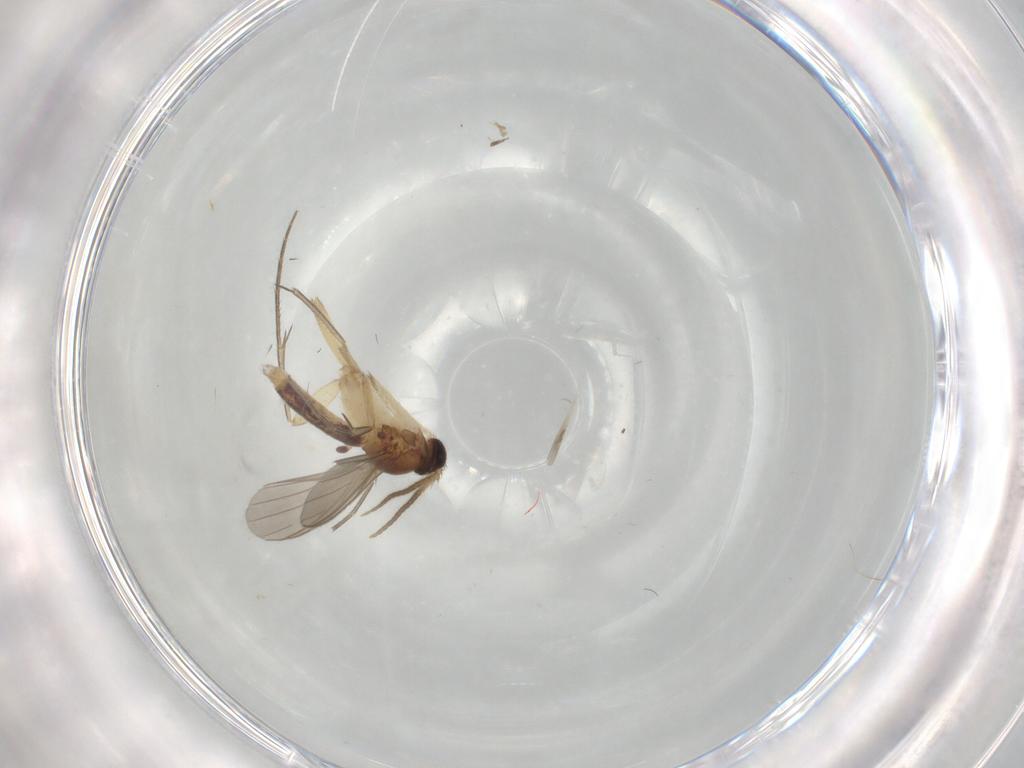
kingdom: Animalia
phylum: Arthropoda
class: Insecta
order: Diptera
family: Mycetophilidae
